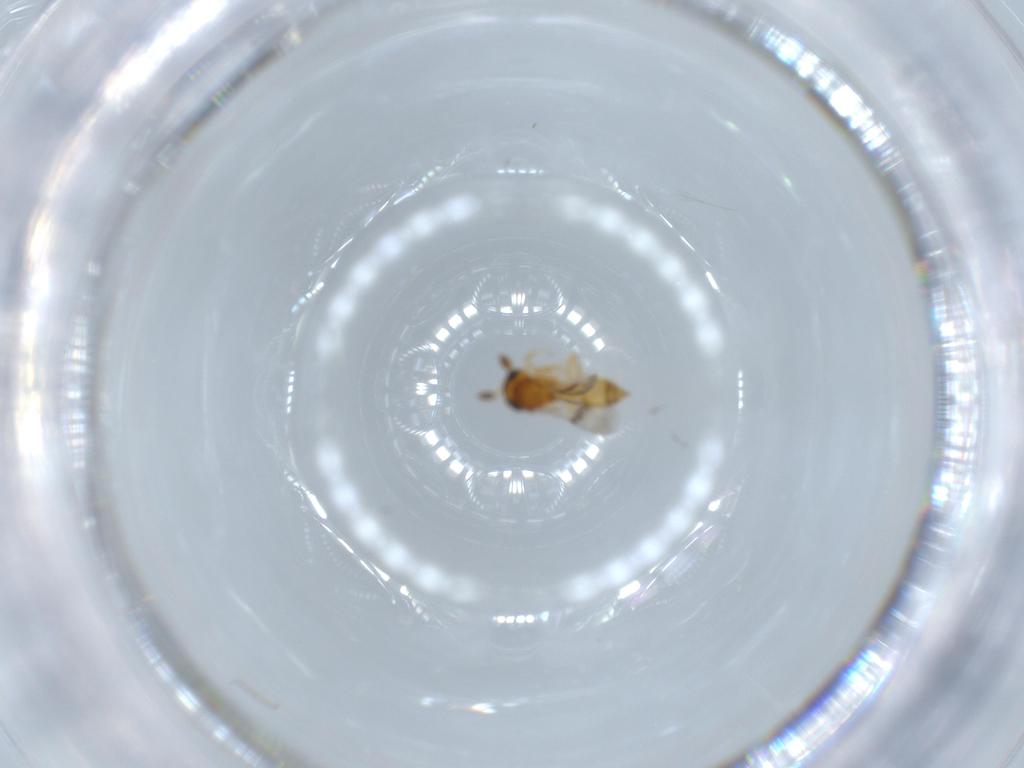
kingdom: Animalia
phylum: Arthropoda
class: Insecta
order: Hymenoptera
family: Scelionidae
